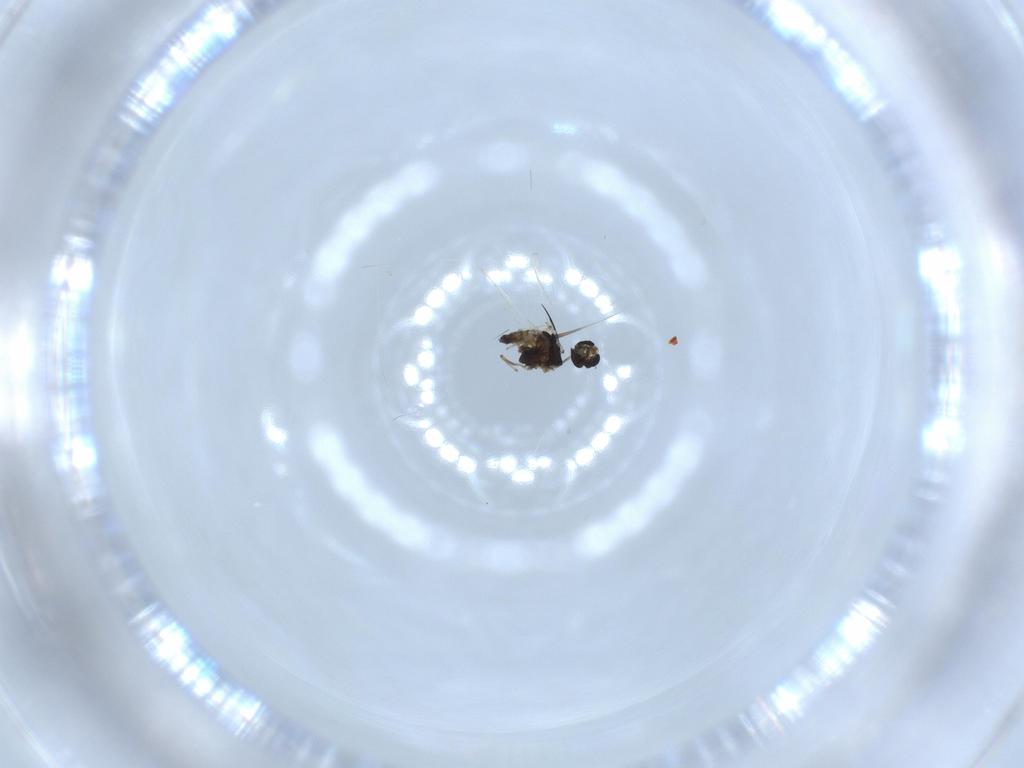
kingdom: Animalia
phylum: Arthropoda
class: Insecta
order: Diptera
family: Chironomidae
